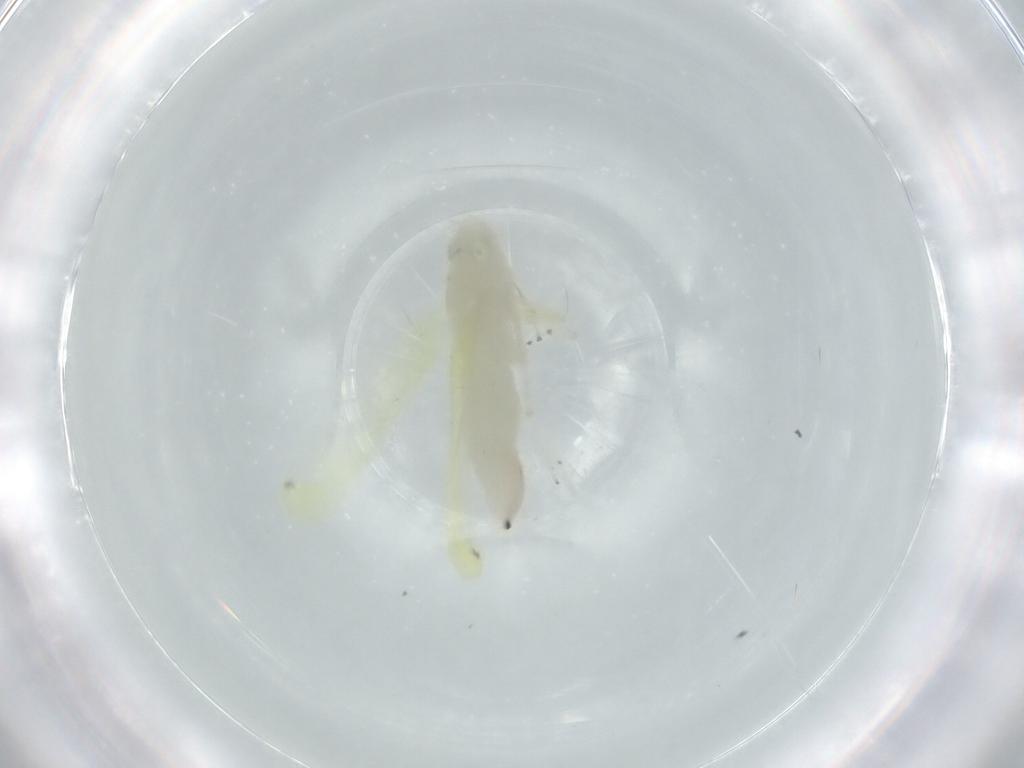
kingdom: Animalia
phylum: Arthropoda
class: Insecta
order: Hemiptera
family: Cicadellidae
